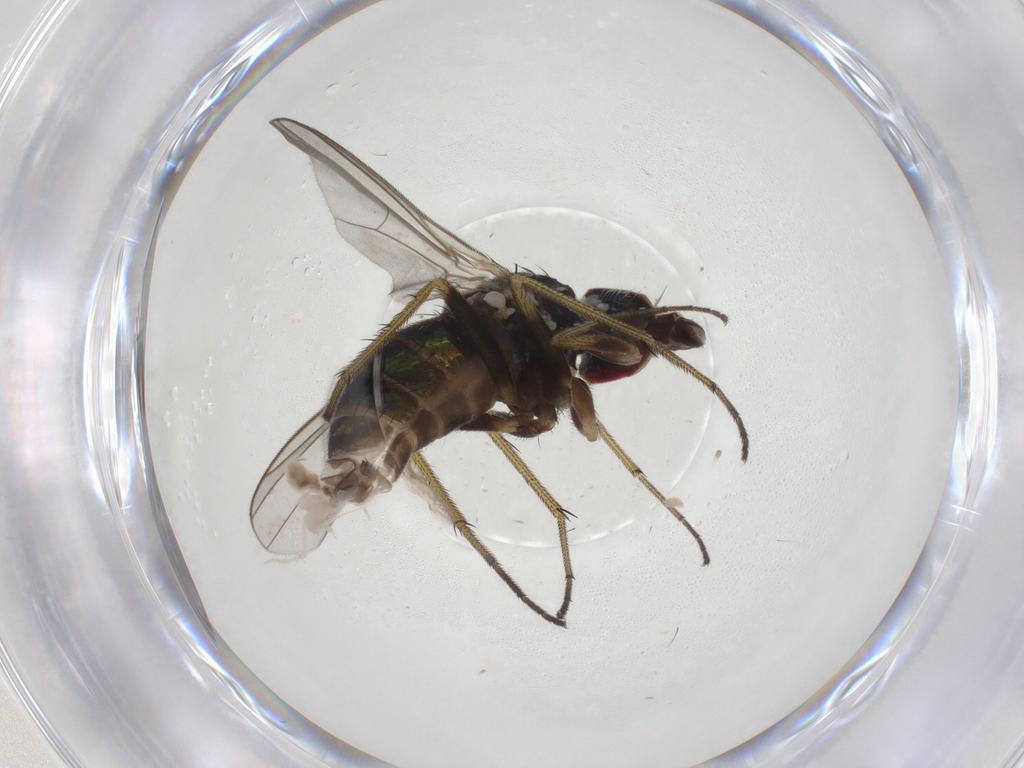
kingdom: Animalia
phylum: Arthropoda
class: Insecta
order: Diptera
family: Dolichopodidae
